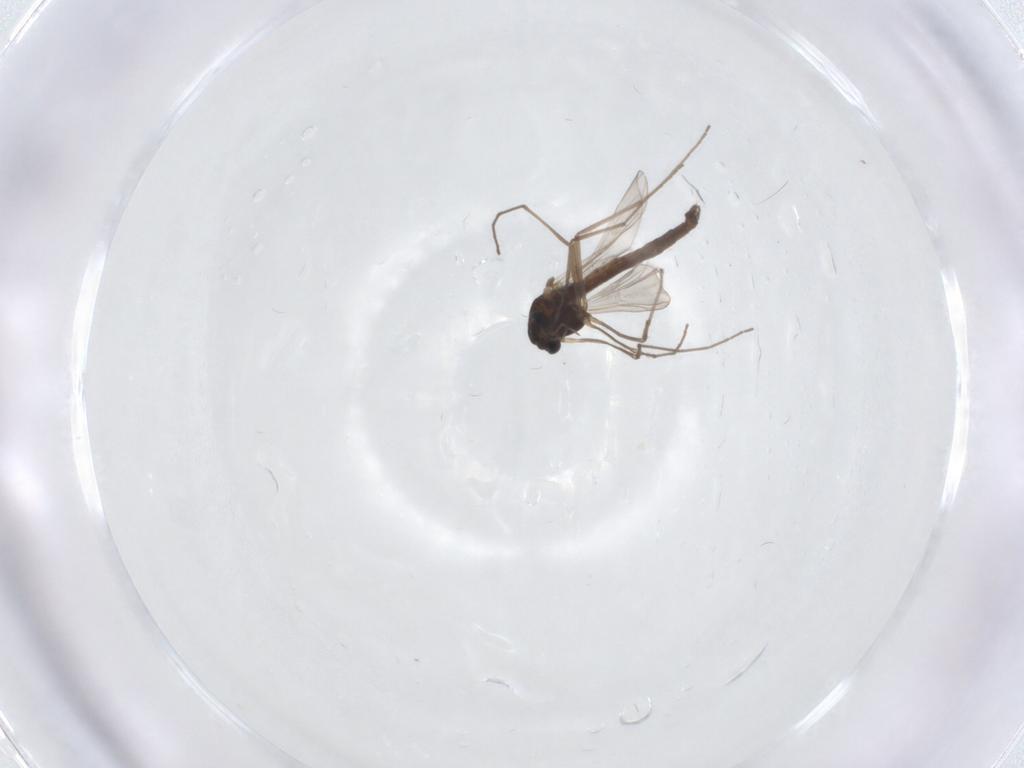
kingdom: Animalia
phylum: Arthropoda
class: Insecta
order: Diptera
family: Chironomidae
